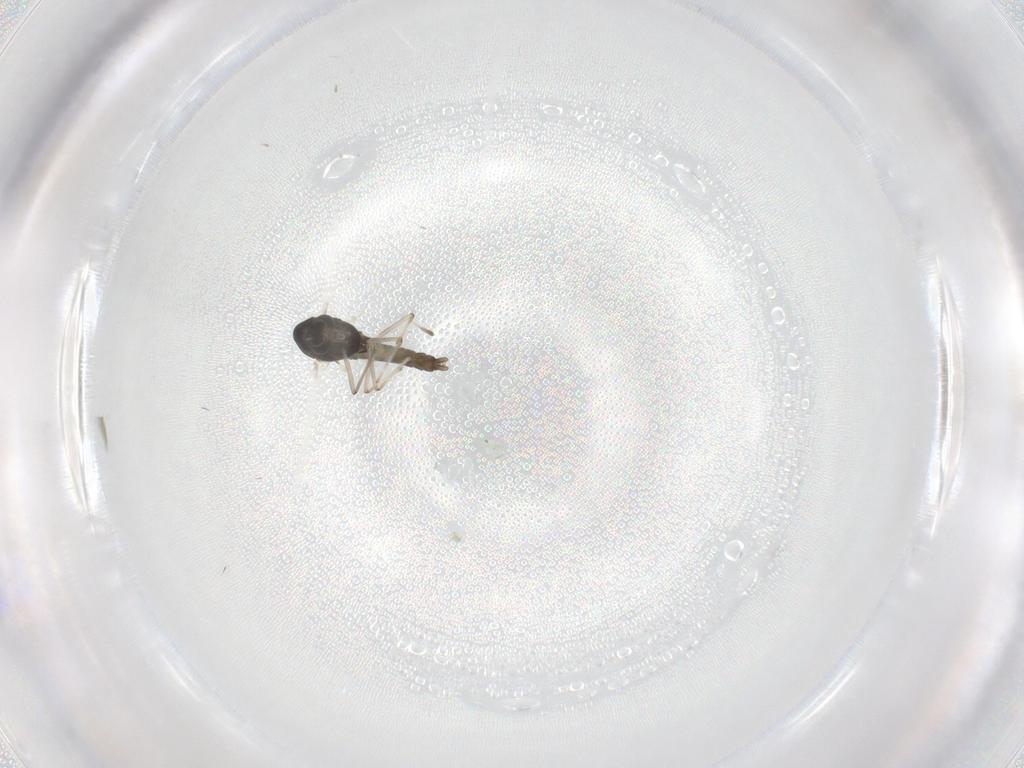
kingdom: Animalia
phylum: Arthropoda
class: Insecta
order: Diptera
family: Chironomidae
